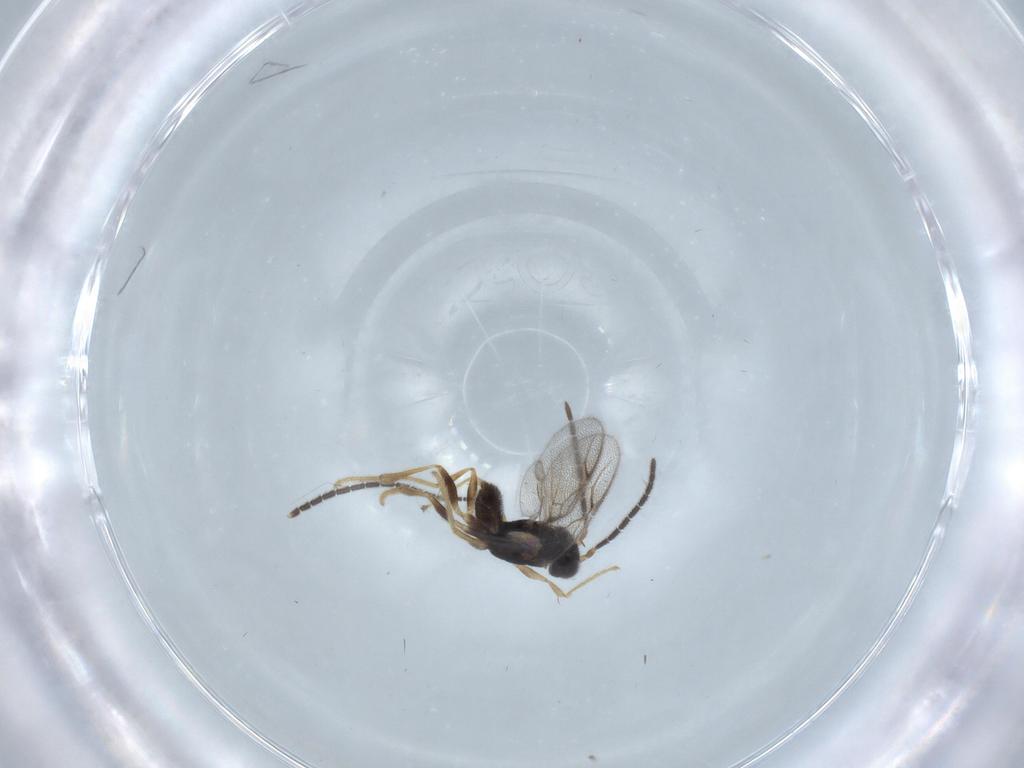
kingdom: Animalia
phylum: Arthropoda
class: Insecta
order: Hymenoptera
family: Dryinidae
